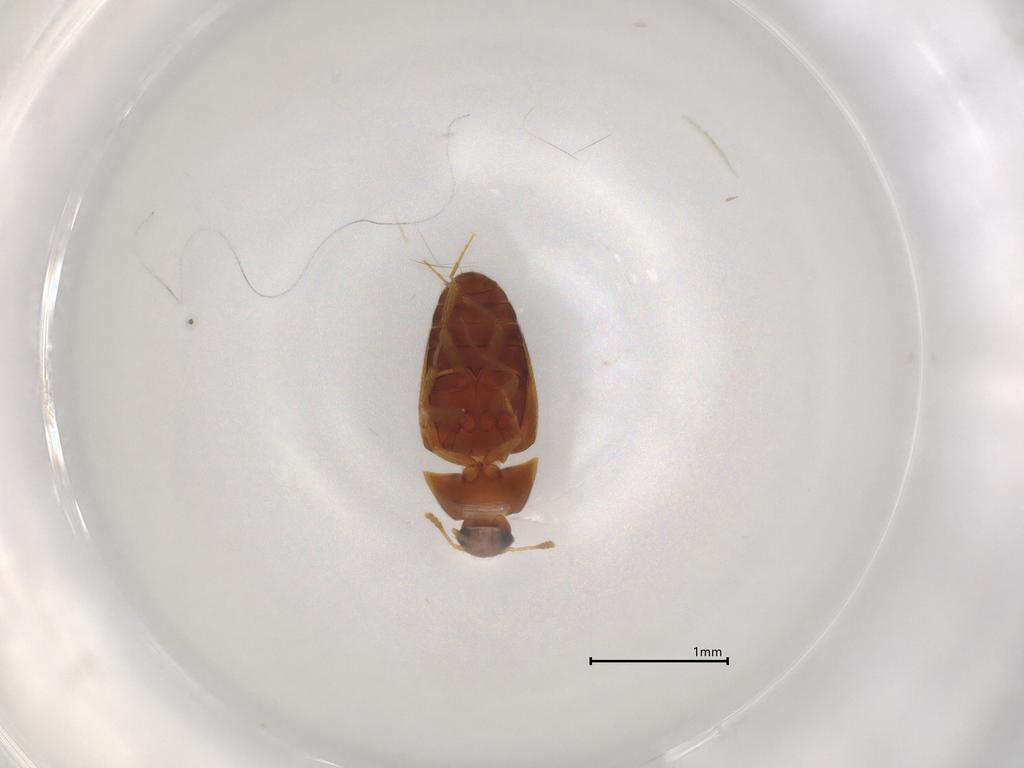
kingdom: Animalia
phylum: Arthropoda
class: Insecta
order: Coleoptera
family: Mycetophagidae
